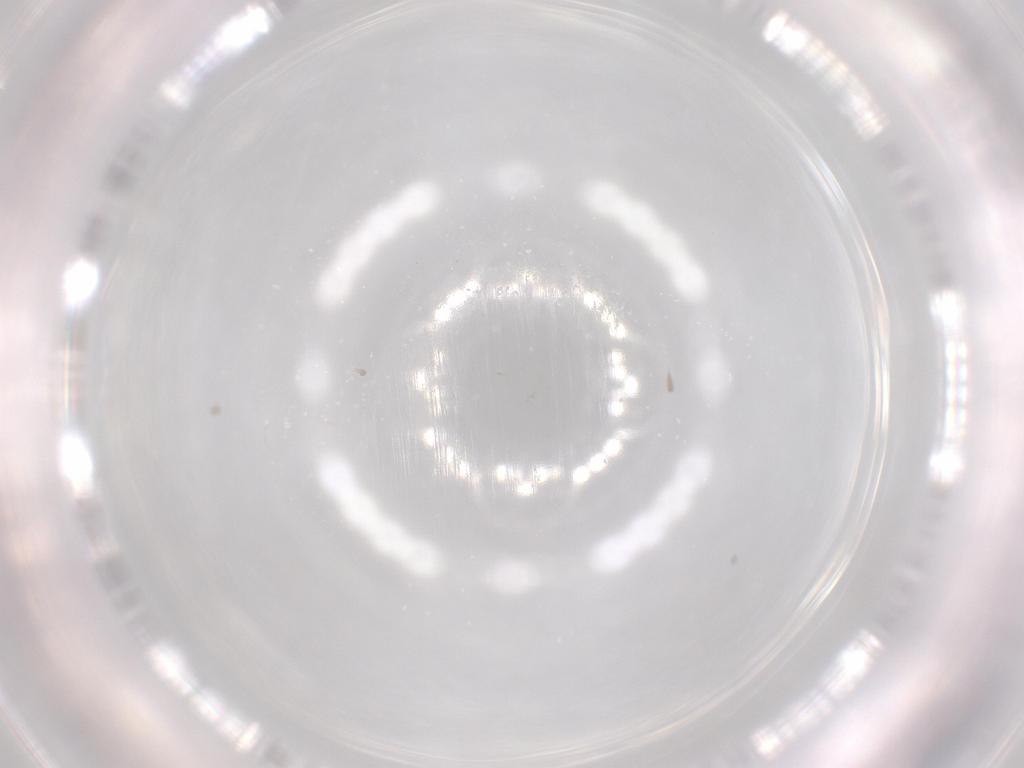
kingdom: Animalia
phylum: Arthropoda
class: Insecta
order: Diptera
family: Cecidomyiidae
